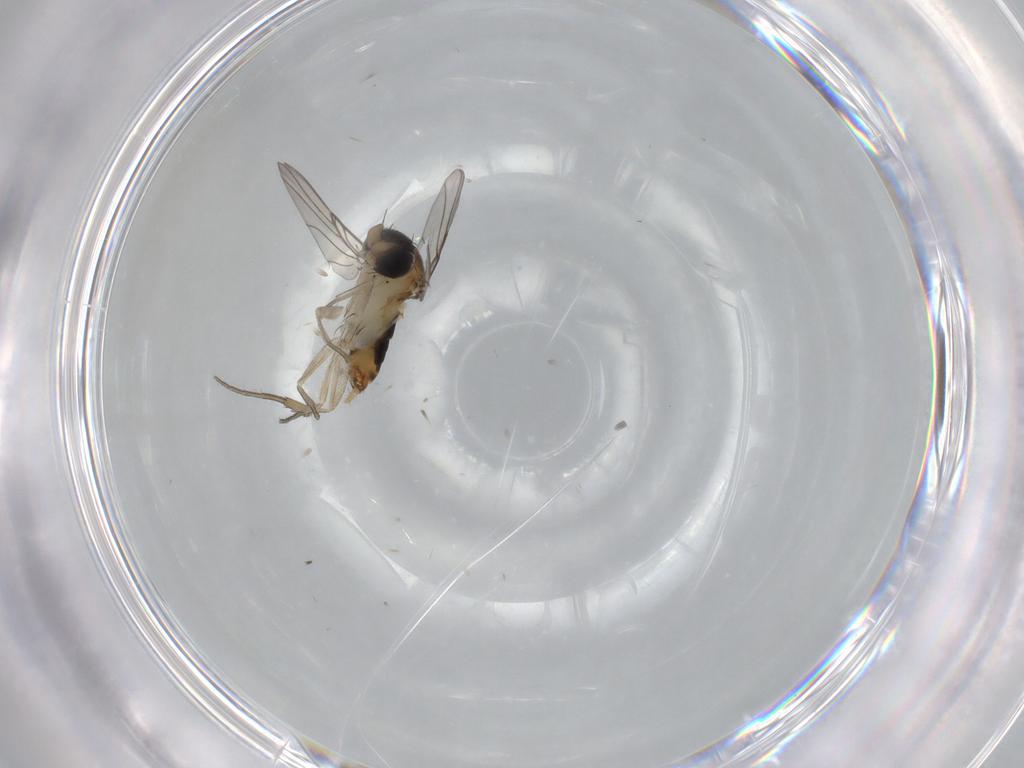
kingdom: Animalia
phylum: Arthropoda
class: Insecta
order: Diptera
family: Phoridae
